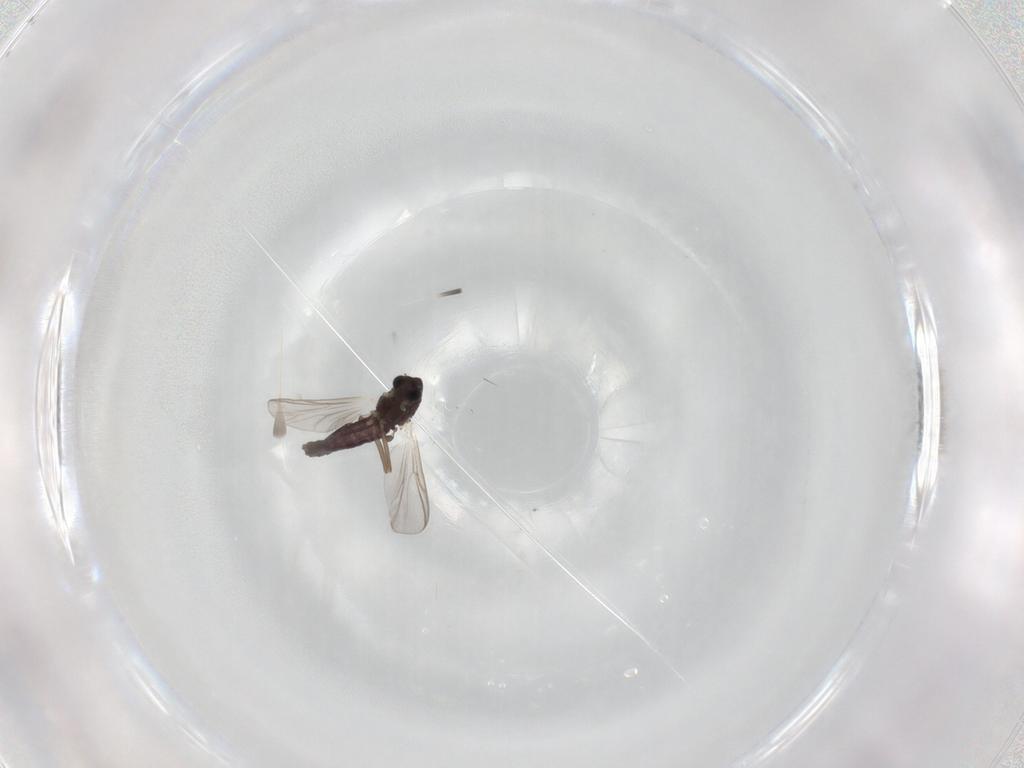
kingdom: Animalia
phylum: Arthropoda
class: Insecta
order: Diptera
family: Chironomidae
